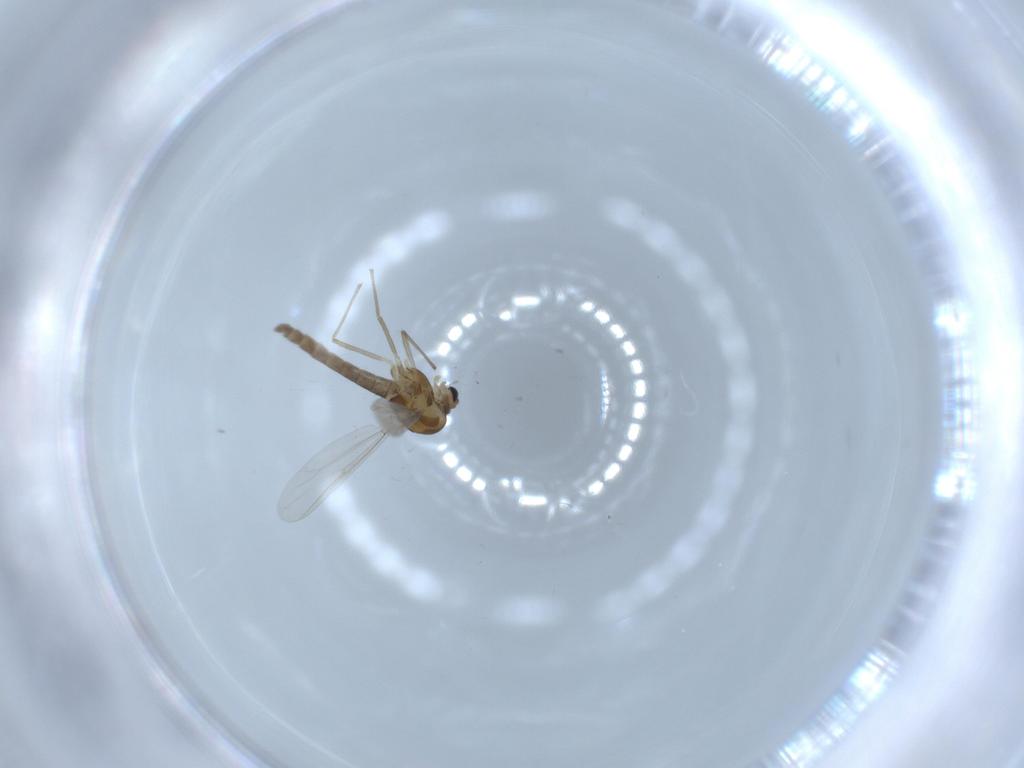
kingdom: Animalia
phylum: Arthropoda
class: Insecta
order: Diptera
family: Chironomidae
